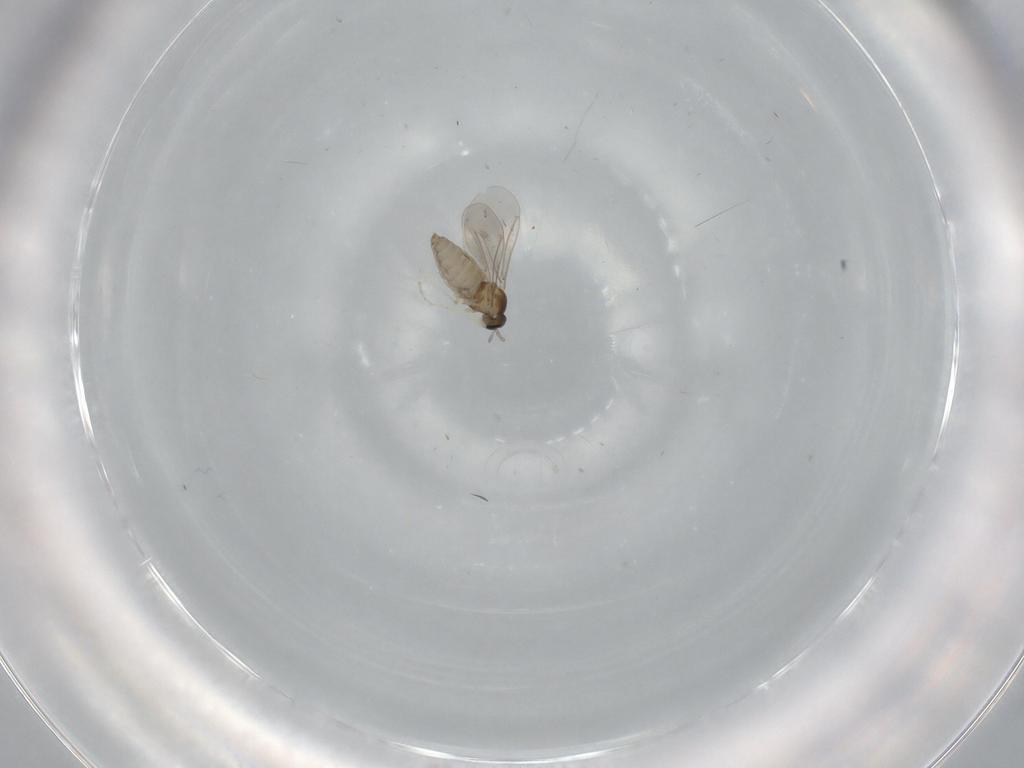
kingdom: Animalia
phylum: Arthropoda
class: Insecta
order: Diptera
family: Cecidomyiidae
